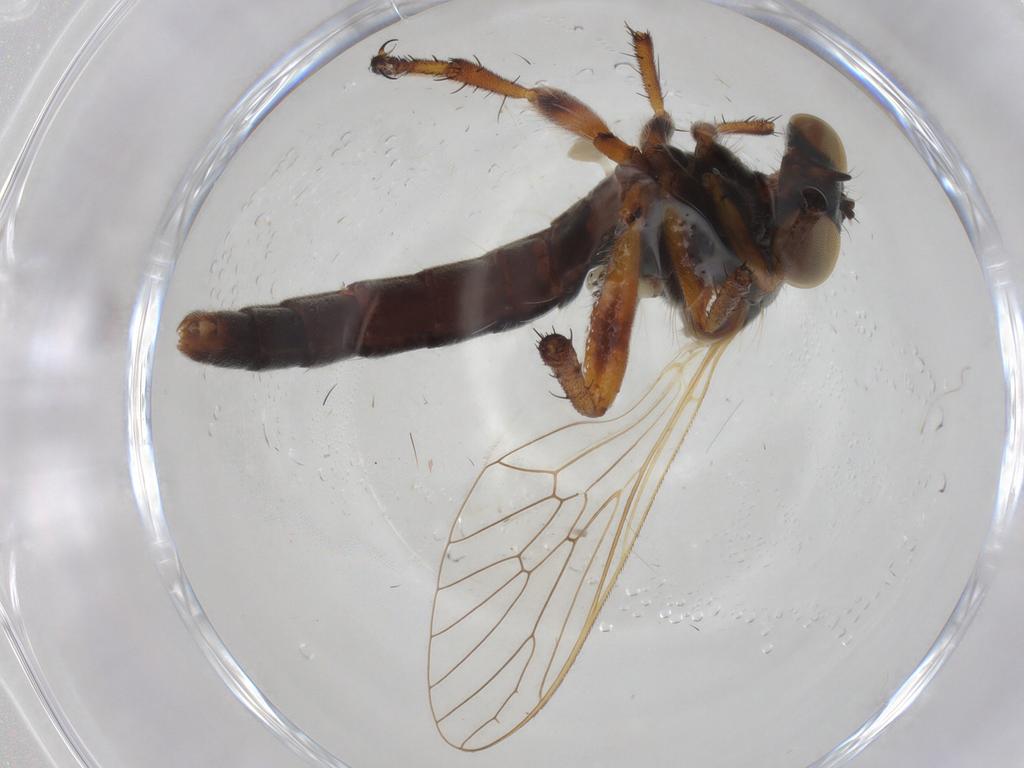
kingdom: Animalia
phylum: Arthropoda
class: Insecta
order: Diptera
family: Asilidae
